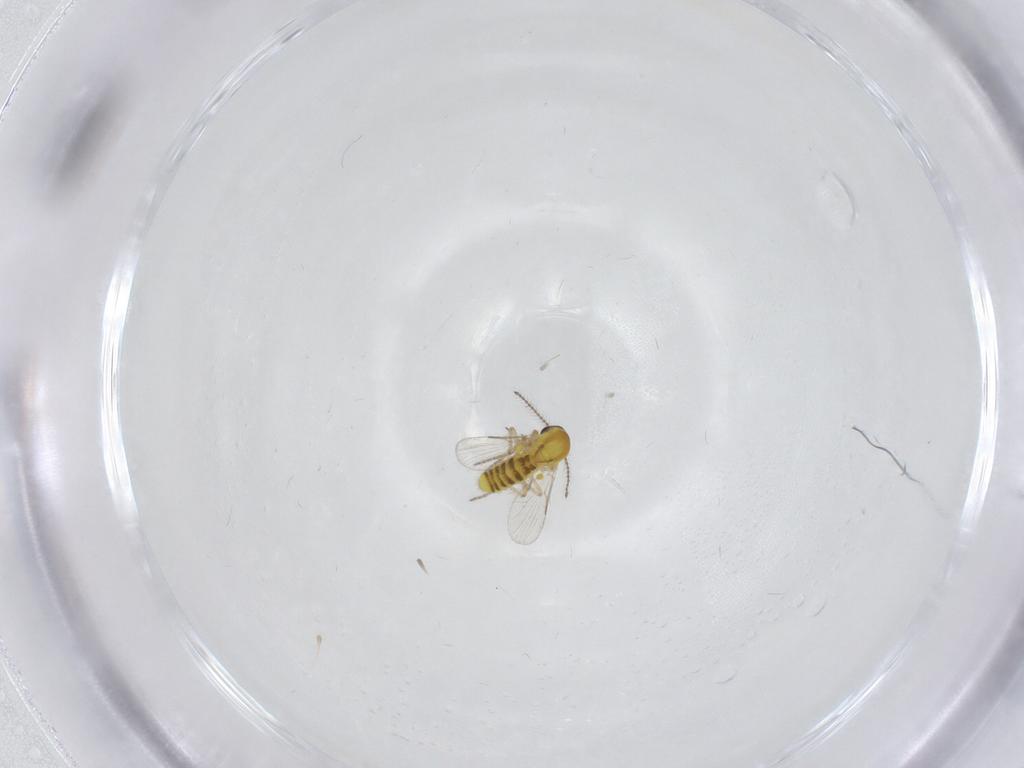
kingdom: Animalia
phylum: Arthropoda
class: Insecta
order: Diptera
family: Ceratopogonidae
